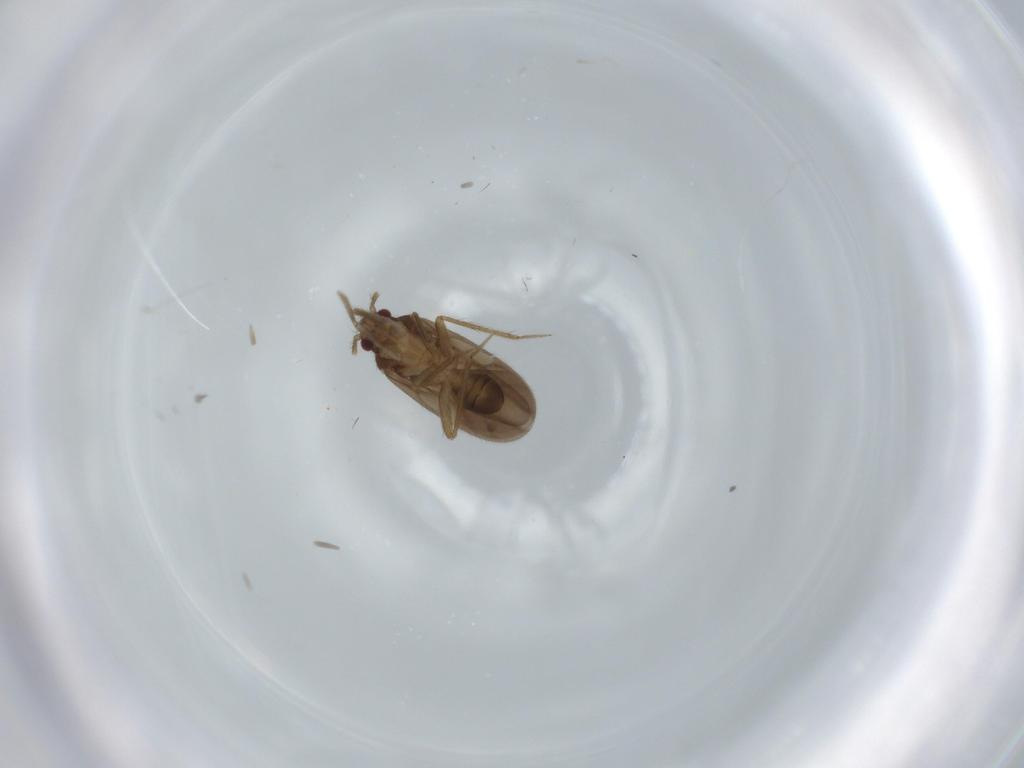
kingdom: Animalia
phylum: Arthropoda
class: Insecta
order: Hemiptera
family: Ceratocombidae
